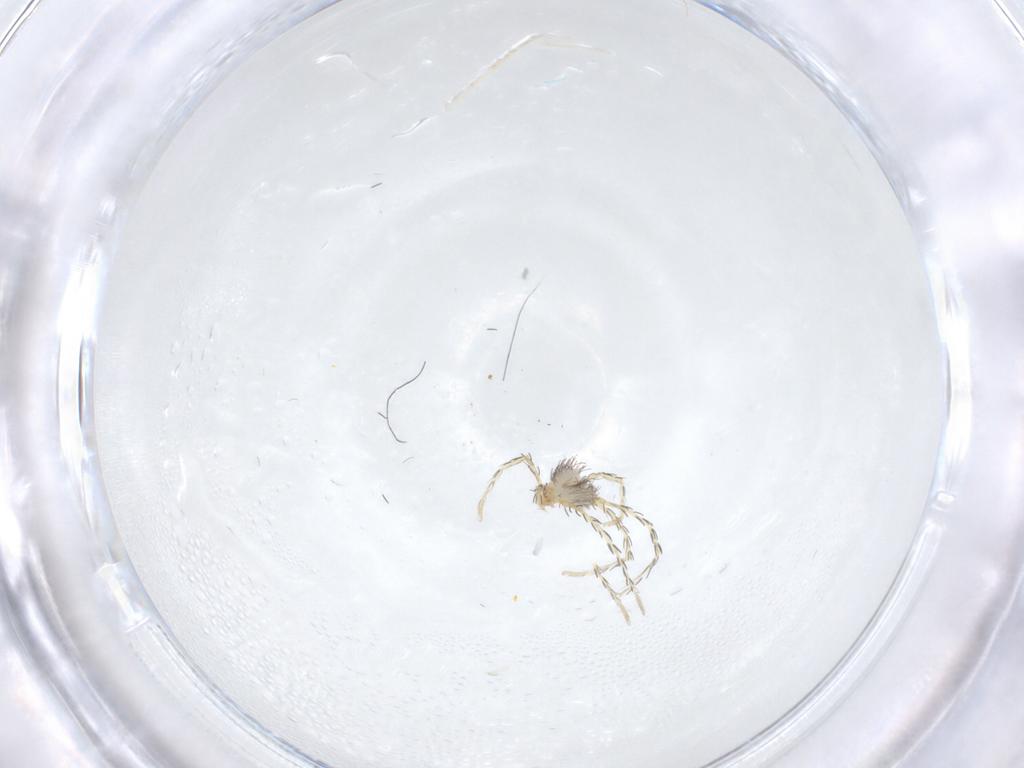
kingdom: Animalia
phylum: Arthropoda
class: Arachnida
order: Trombidiformes
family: Erythraeidae
